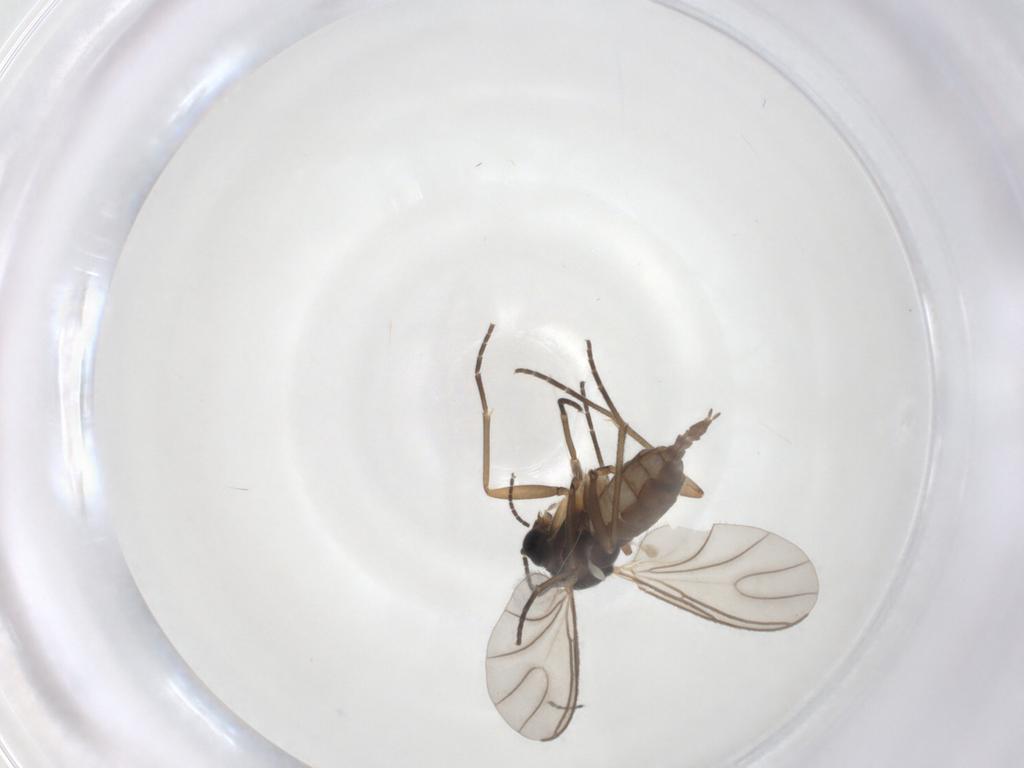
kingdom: Animalia
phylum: Arthropoda
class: Insecta
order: Diptera
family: Sciaridae
